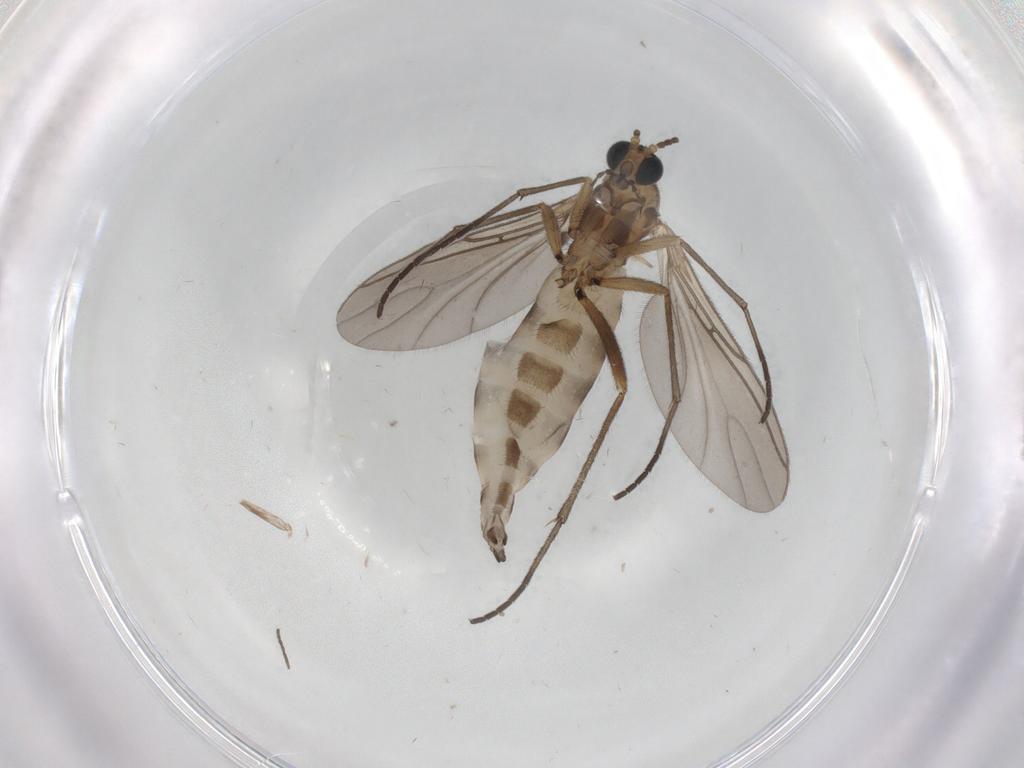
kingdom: Animalia
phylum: Arthropoda
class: Insecta
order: Diptera
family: Sciaridae
